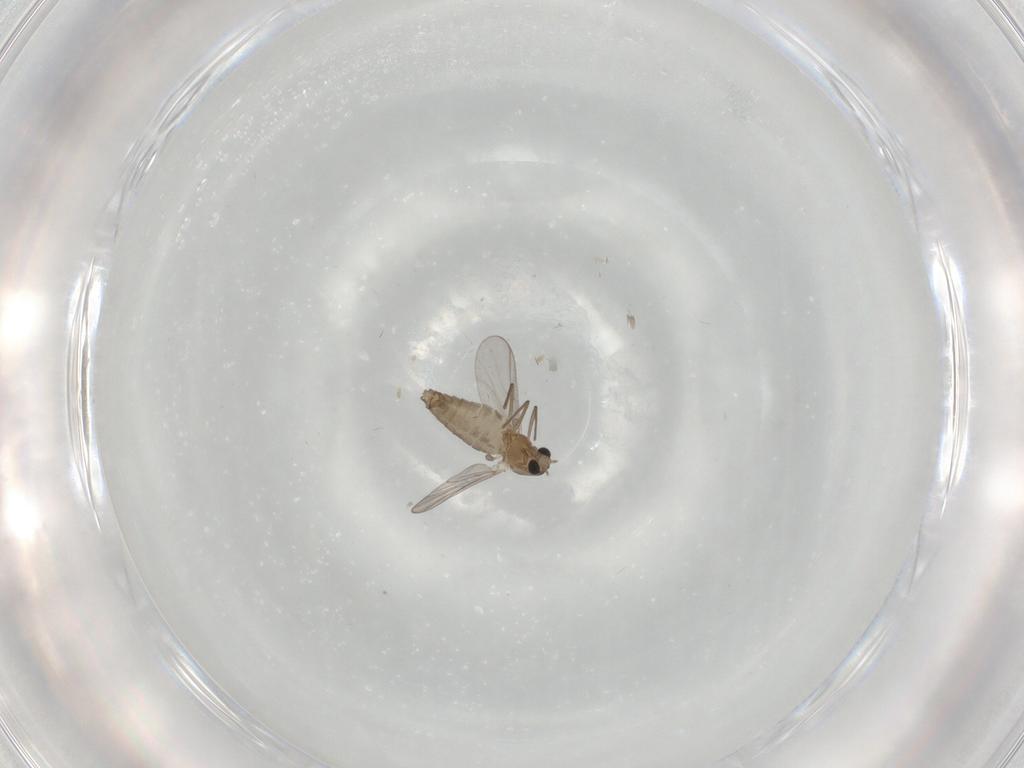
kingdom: Animalia
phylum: Arthropoda
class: Insecta
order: Diptera
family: Chironomidae
